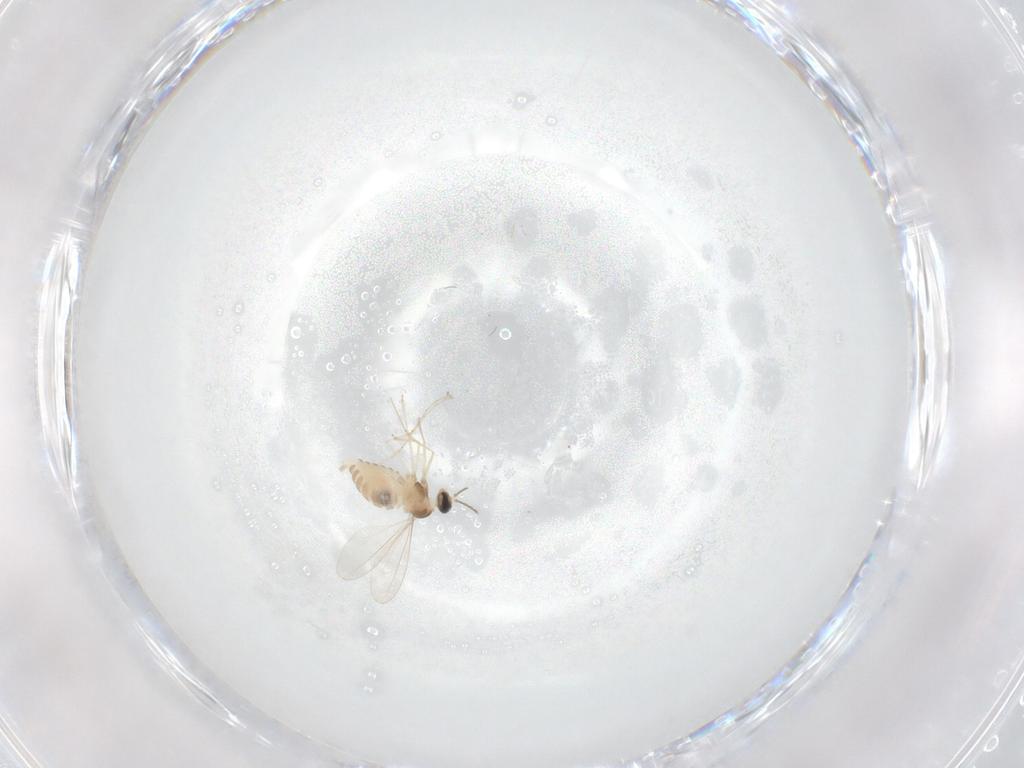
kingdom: Animalia
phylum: Arthropoda
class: Insecta
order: Diptera
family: Cecidomyiidae
